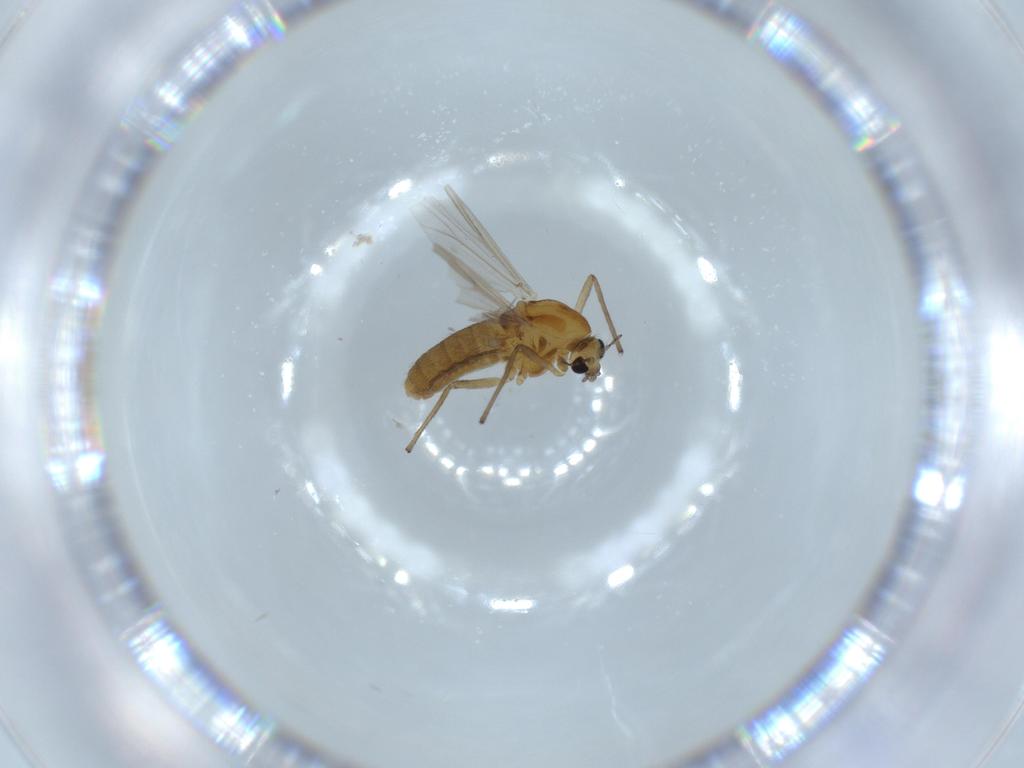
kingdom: Animalia
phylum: Arthropoda
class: Insecta
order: Diptera
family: Chironomidae
